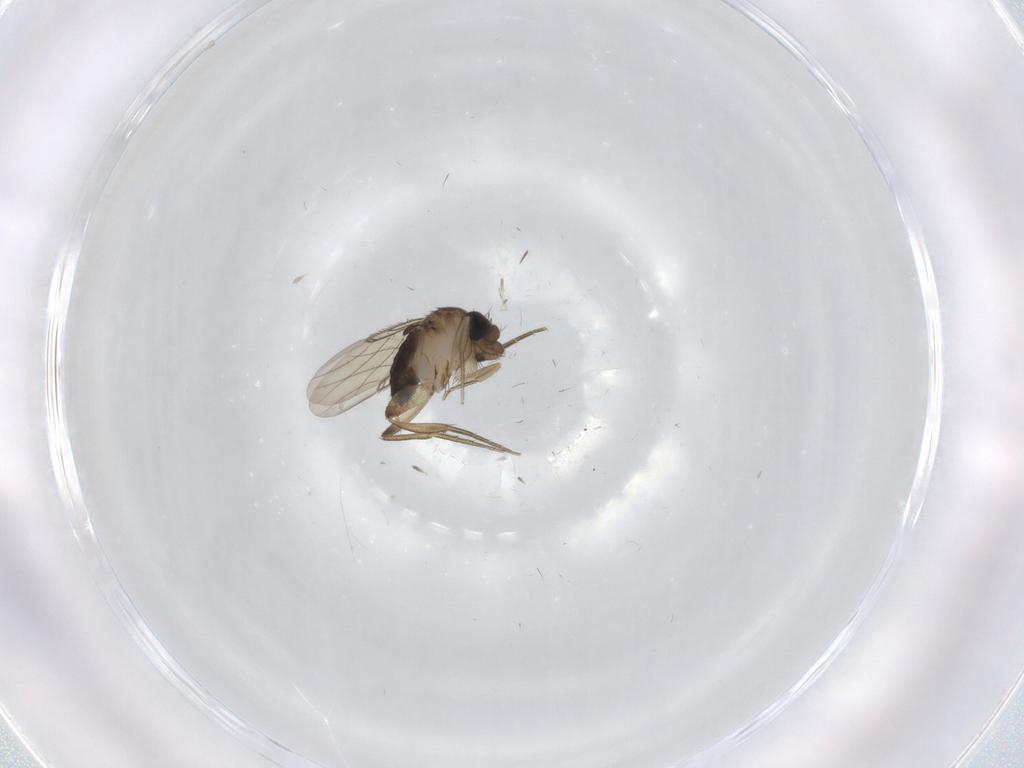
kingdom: Animalia
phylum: Arthropoda
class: Insecta
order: Diptera
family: Phoridae
